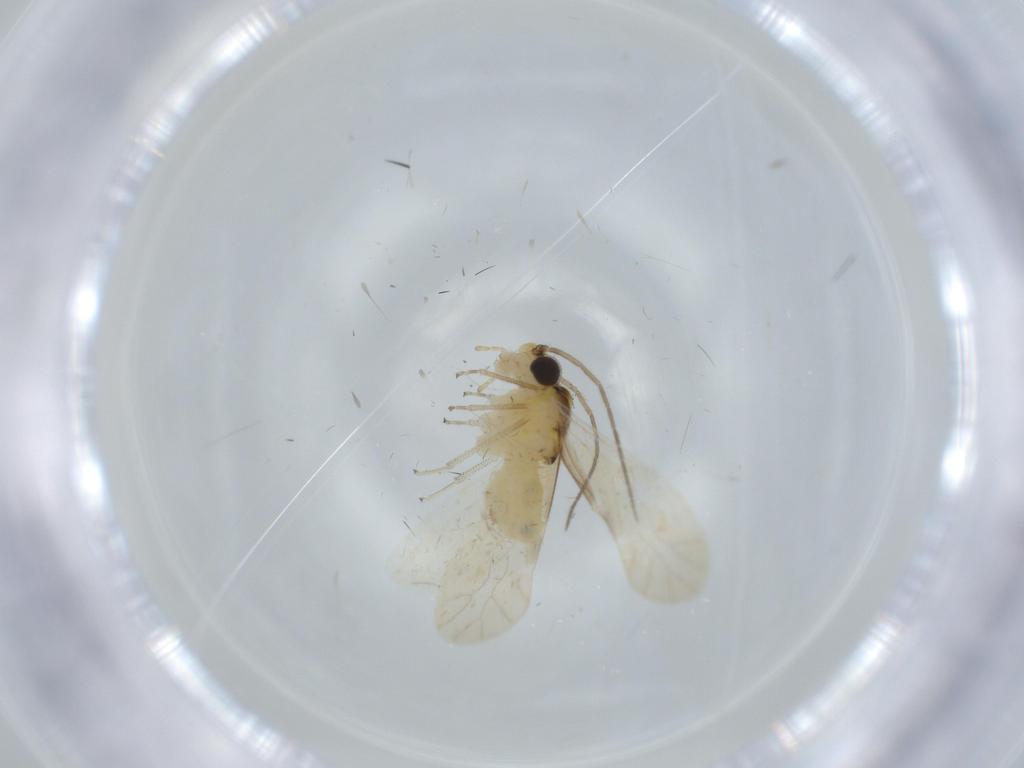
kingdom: Animalia
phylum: Arthropoda
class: Insecta
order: Psocodea
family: Caeciliusidae
